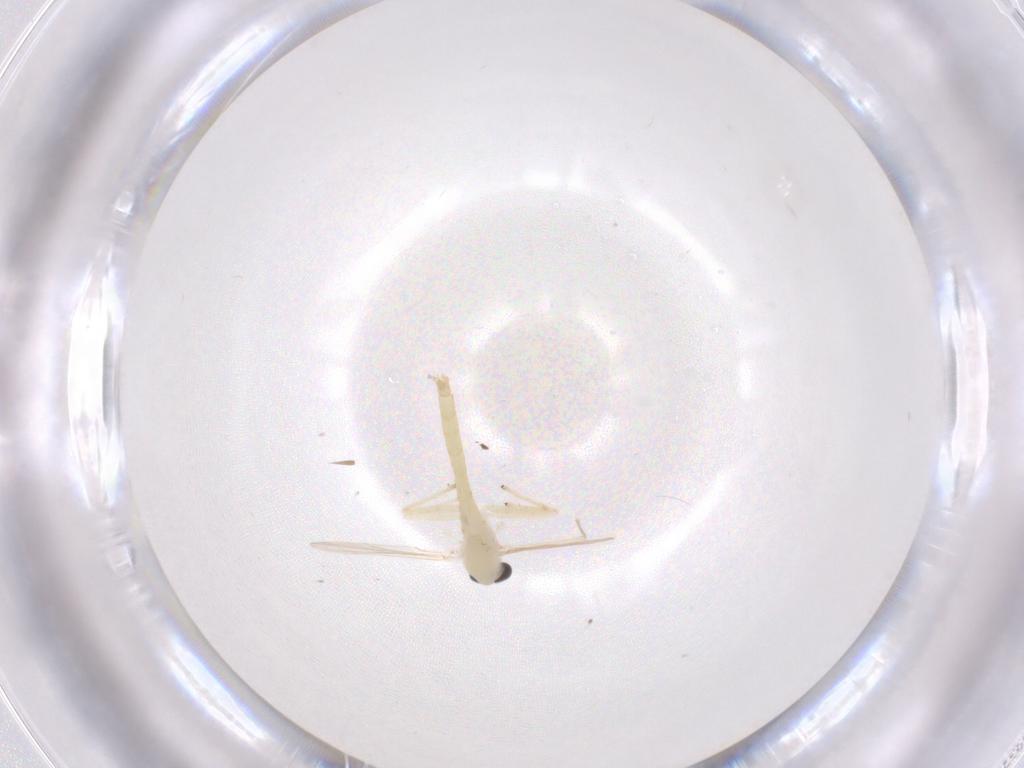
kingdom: Animalia
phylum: Arthropoda
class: Insecta
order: Diptera
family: Chironomidae
